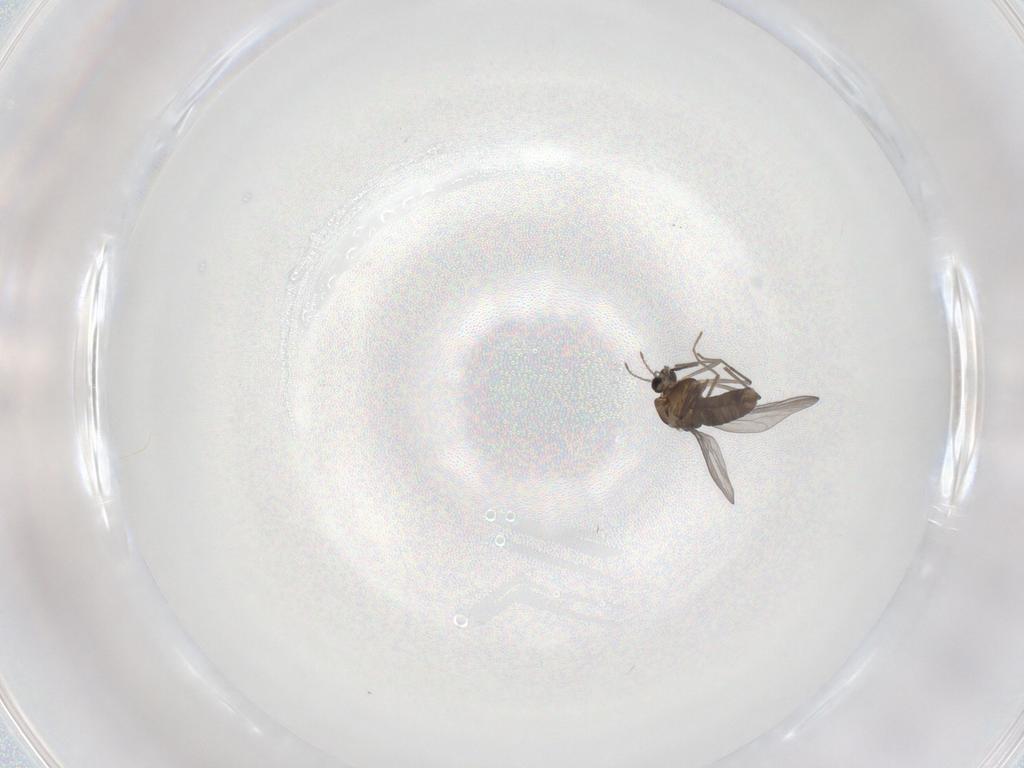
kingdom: Animalia
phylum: Arthropoda
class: Insecta
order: Diptera
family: Chironomidae
